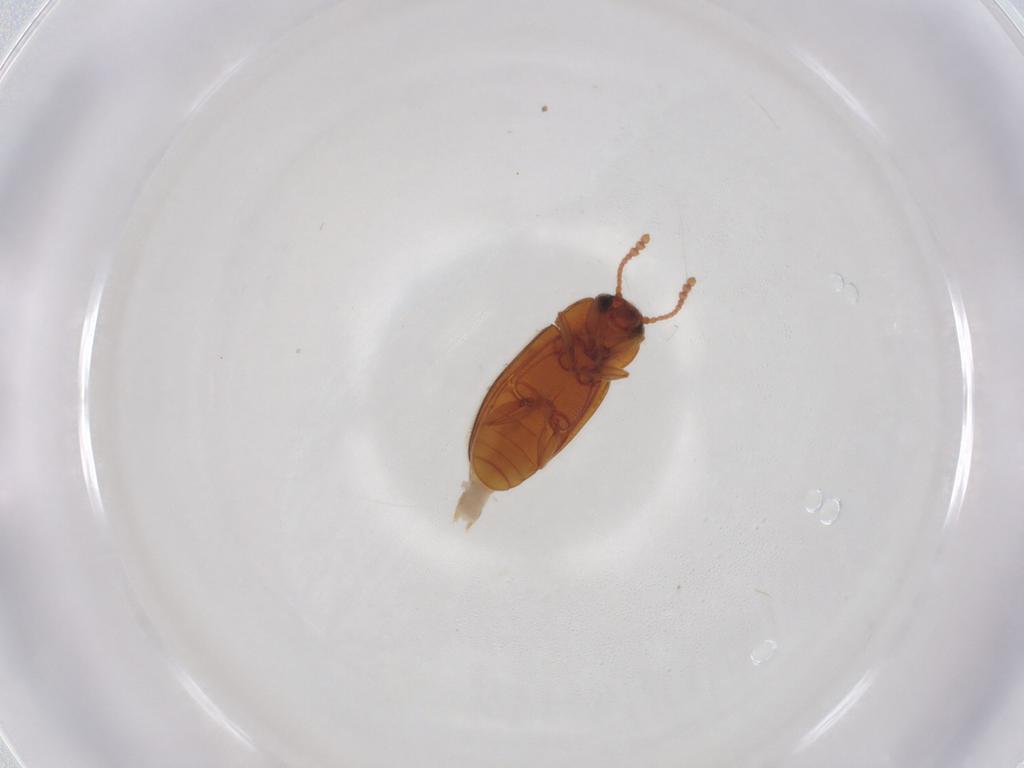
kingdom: Animalia
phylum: Arthropoda
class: Insecta
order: Coleoptera
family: Erotylidae
